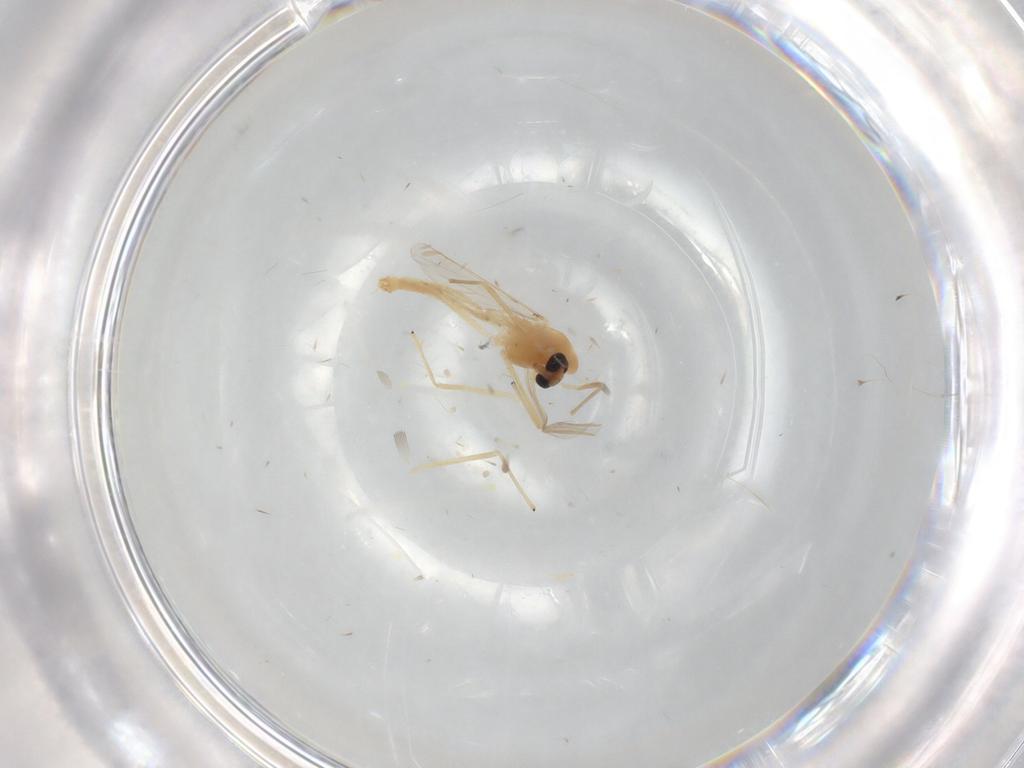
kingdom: Animalia
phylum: Arthropoda
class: Insecta
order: Diptera
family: Chironomidae
